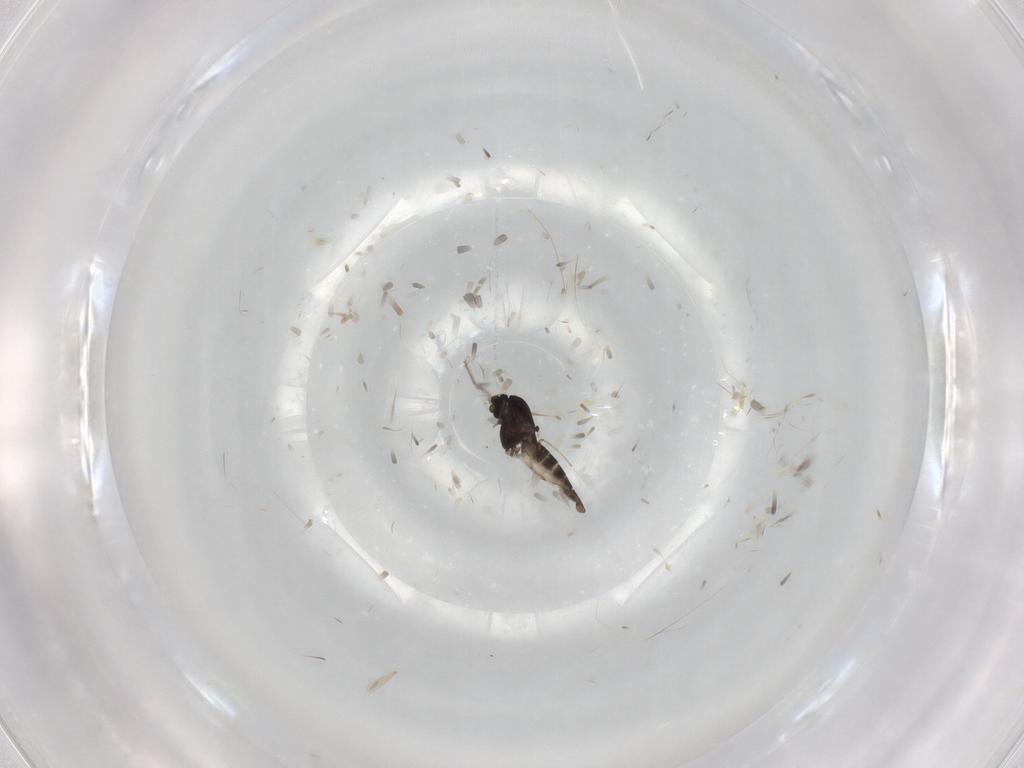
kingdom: Animalia
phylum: Arthropoda
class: Insecta
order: Diptera
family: Chironomidae
